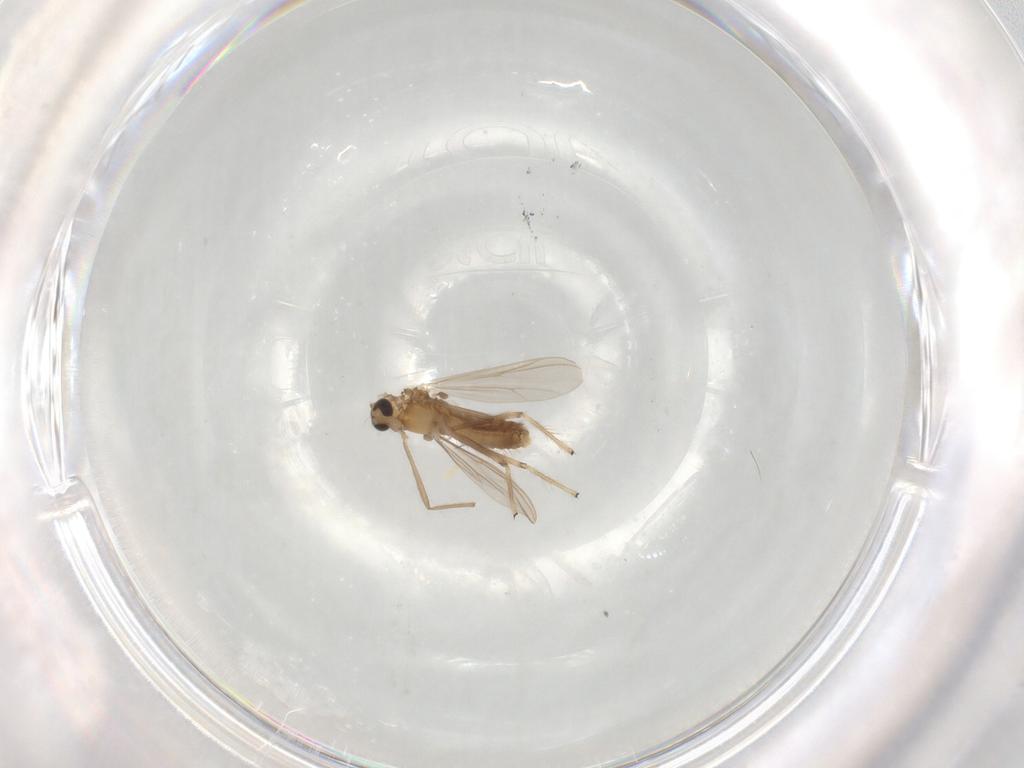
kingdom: Animalia
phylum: Arthropoda
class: Insecta
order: Diptera
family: Chironomidae
